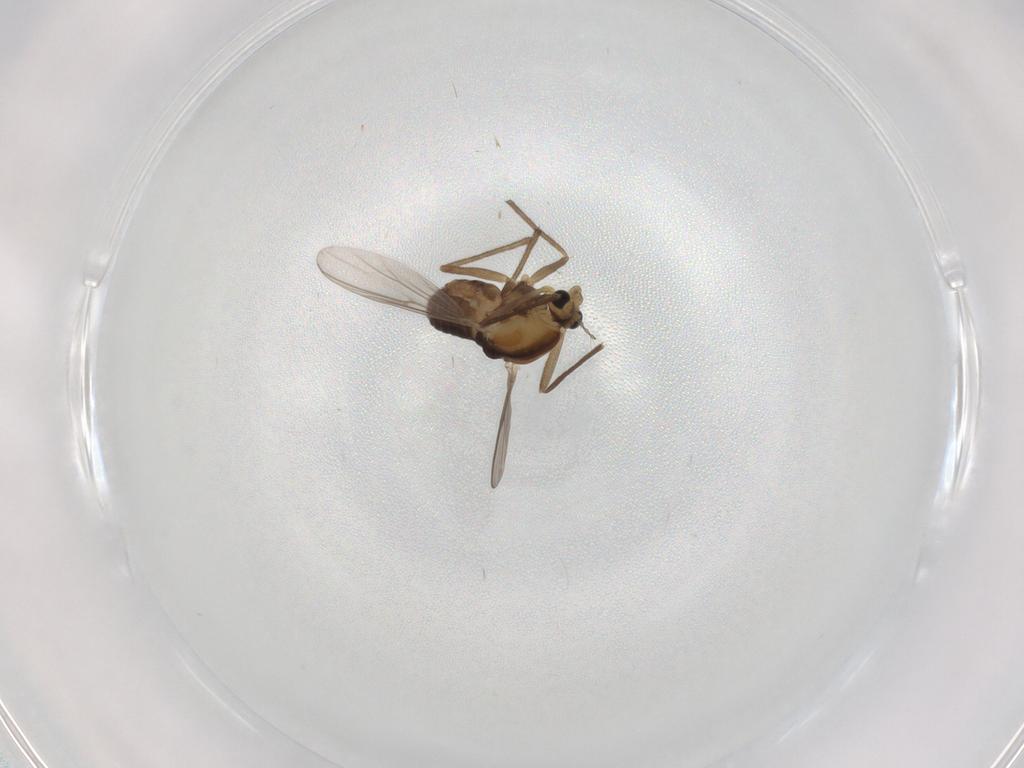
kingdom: Animalia
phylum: Arthropoda
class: Insecta
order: Diptera
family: Chironomidae
